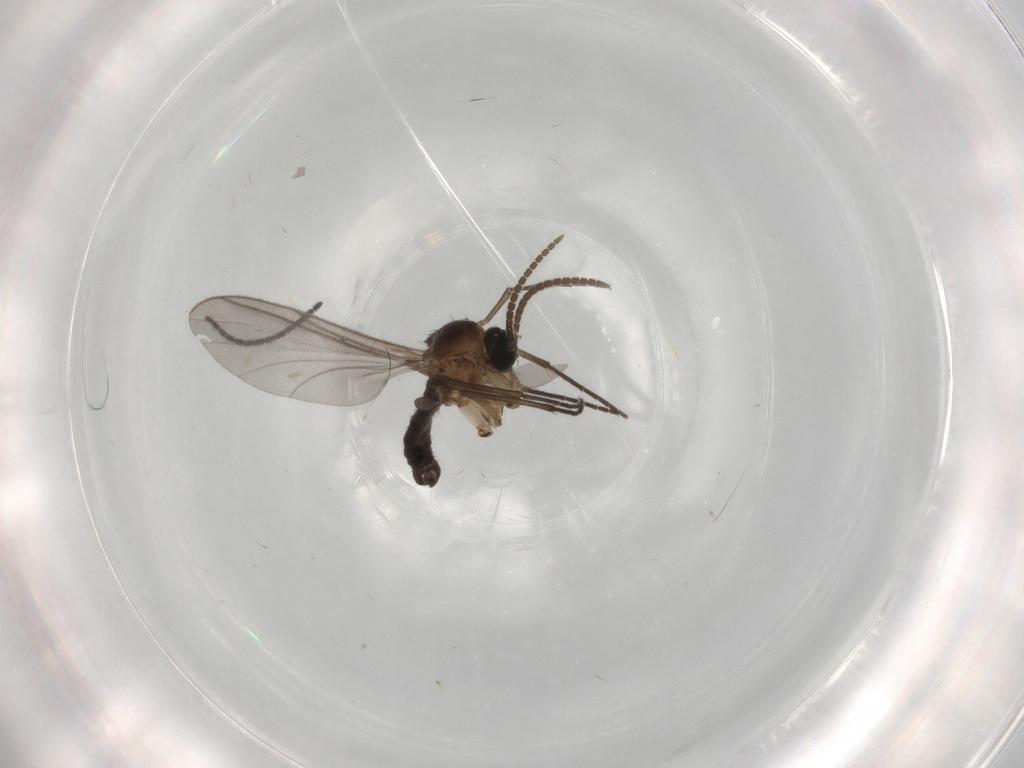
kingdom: Animalia
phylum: Arthropoda
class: Insecta
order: Diptera
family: Sciaridae
